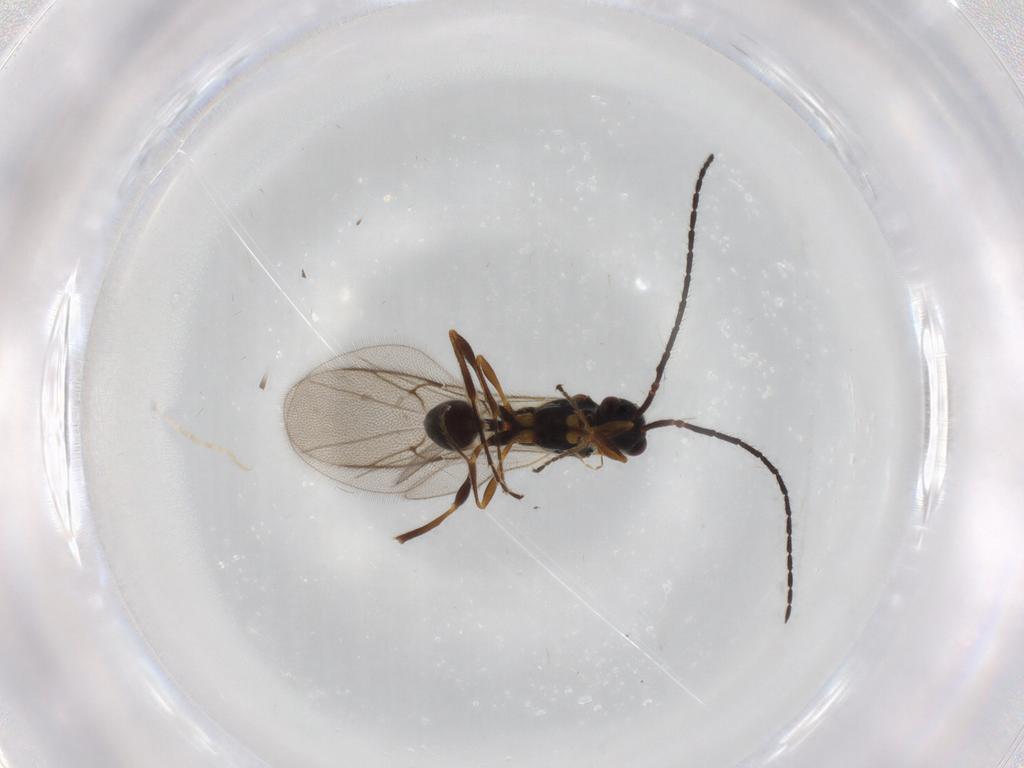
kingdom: Animalia
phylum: Arthropoda
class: Insecta
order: Hymenoptera
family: Diapriidae
